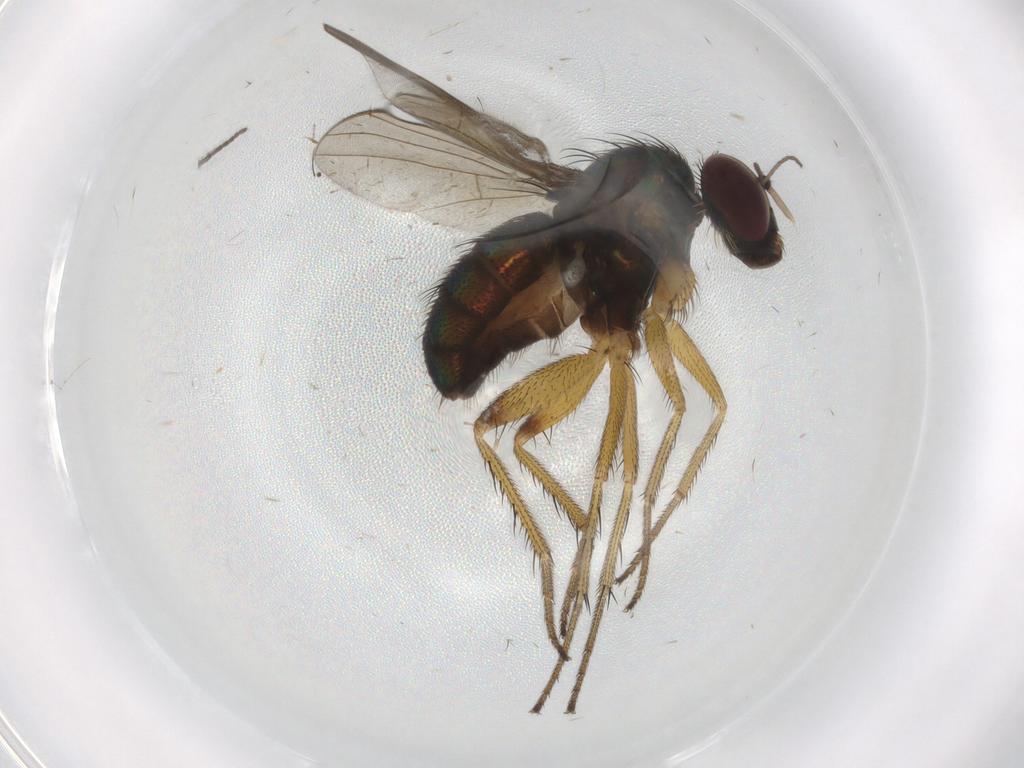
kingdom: Animalia
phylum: Arthropoda
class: Insecta
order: Diptera
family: Dolichopodidae
